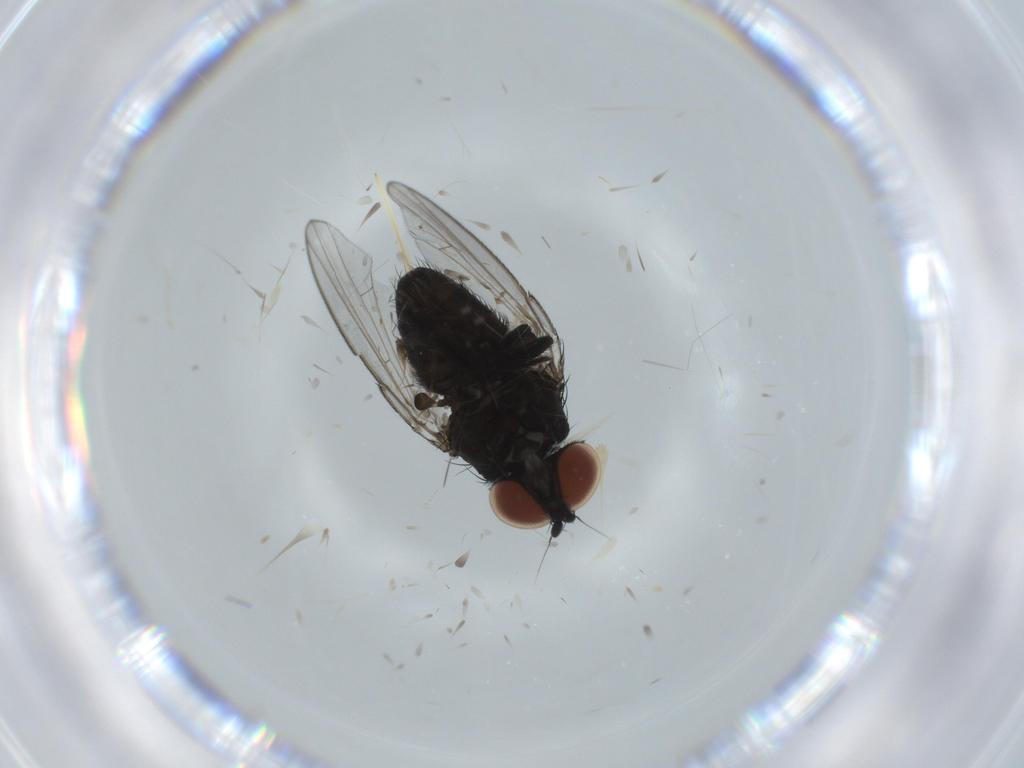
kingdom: Animalia
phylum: Arthropoda
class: Insecta
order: Diptera
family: Milichiidae
